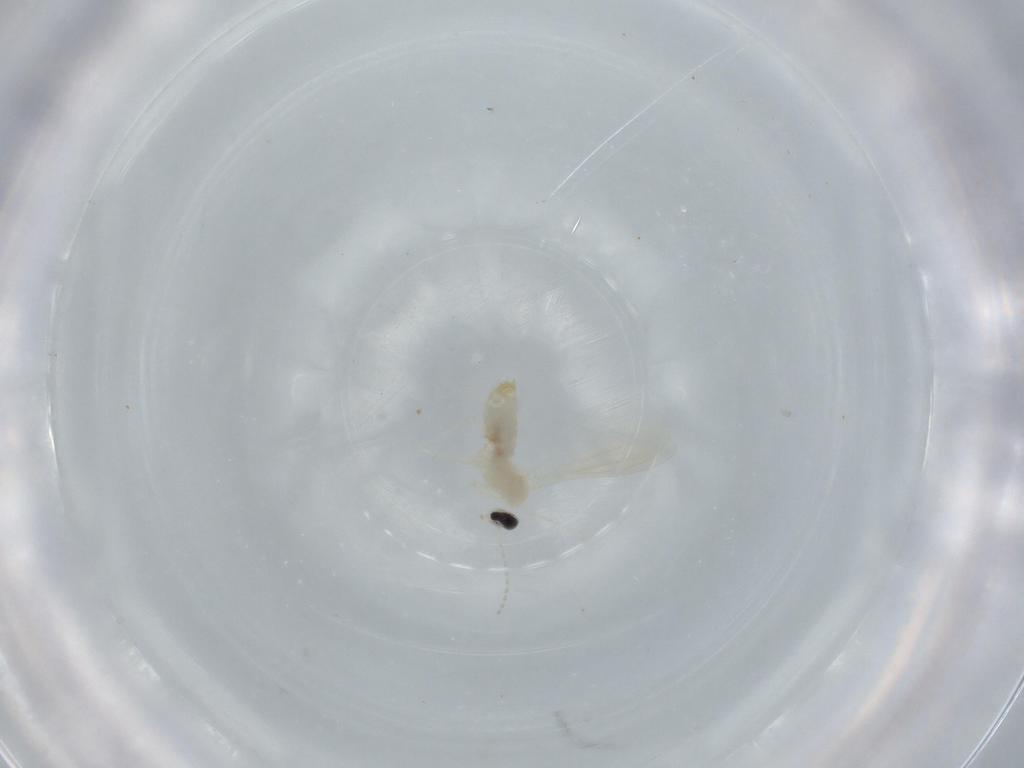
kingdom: Animalia
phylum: Arthropoda
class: Insecta
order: Diptera
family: Cecidomyiidae
